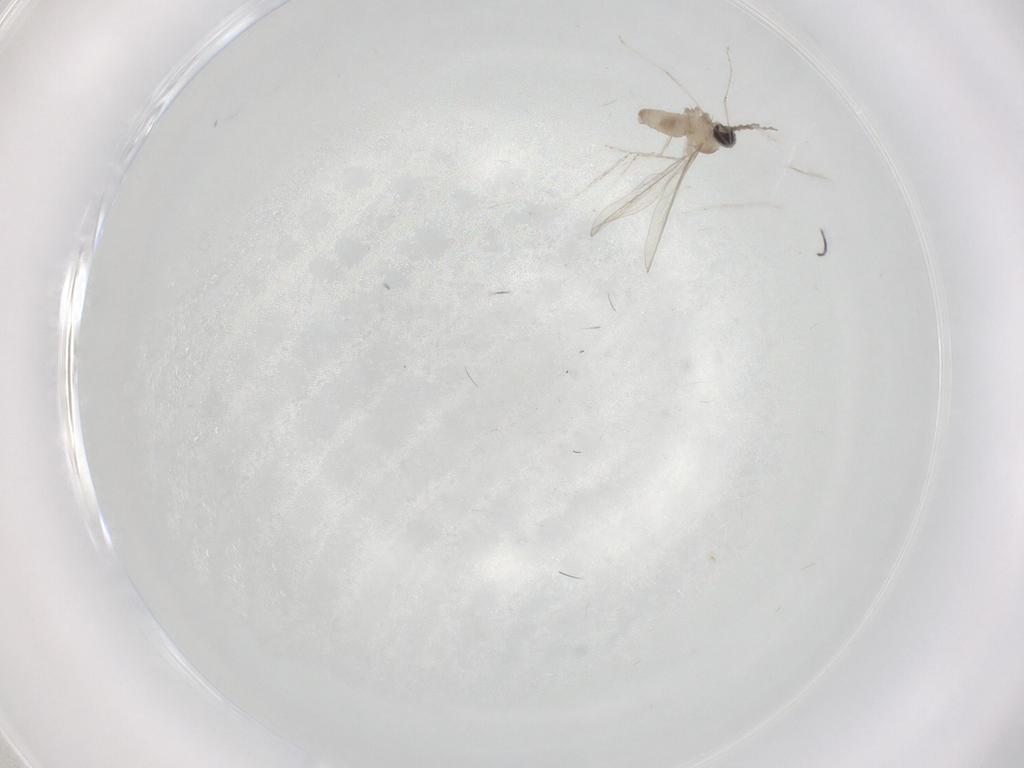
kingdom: Animalia
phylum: Arthropoda
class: Insecta
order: Diptera
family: Cecidomyiidae
